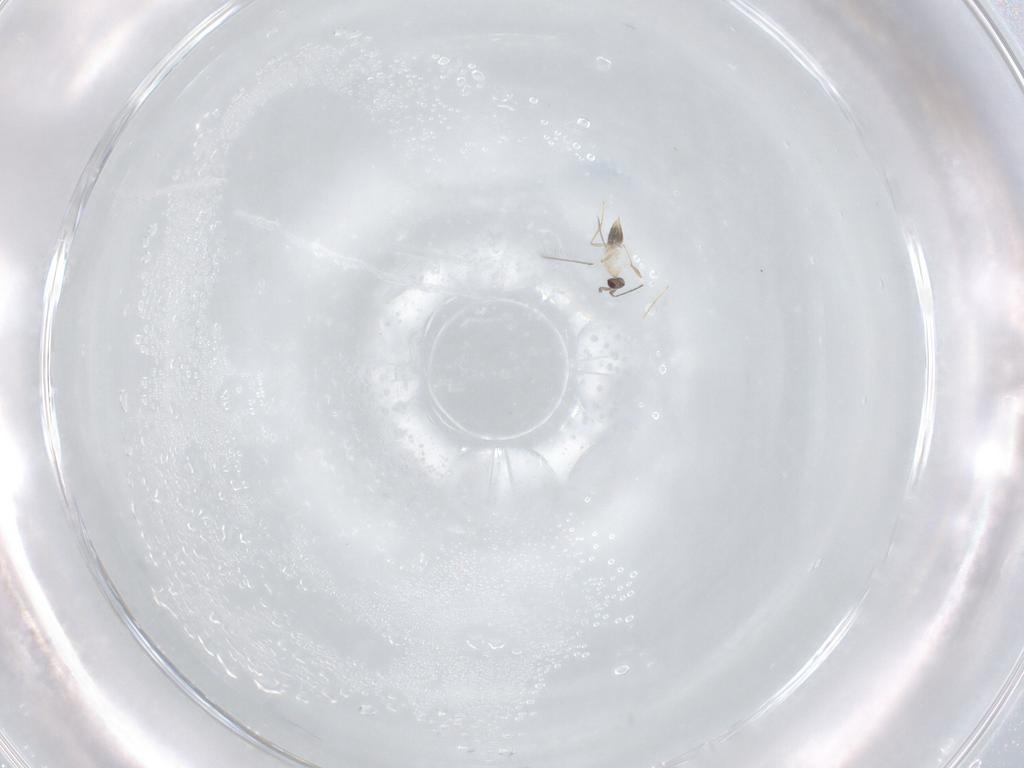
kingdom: Animalia
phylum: Arthropoda
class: Insecta
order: Hymenoptera
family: Mymaridae
